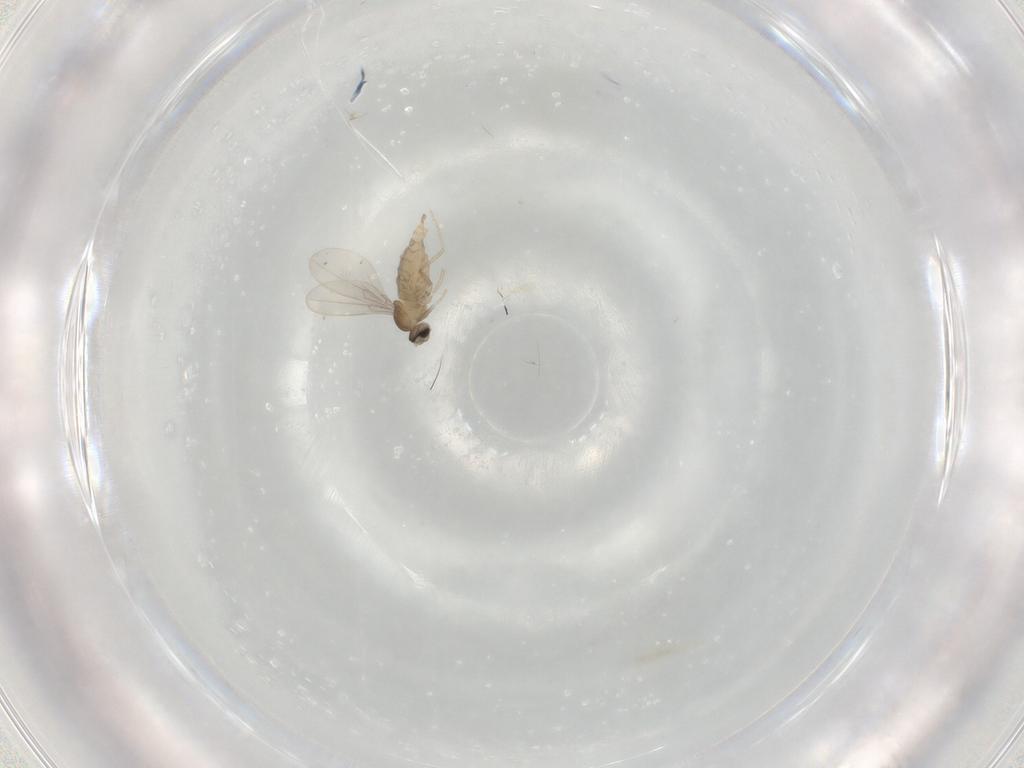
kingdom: Animalia
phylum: Arthropoda
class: Insecta
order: Diptera
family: Cecidomyiidae
